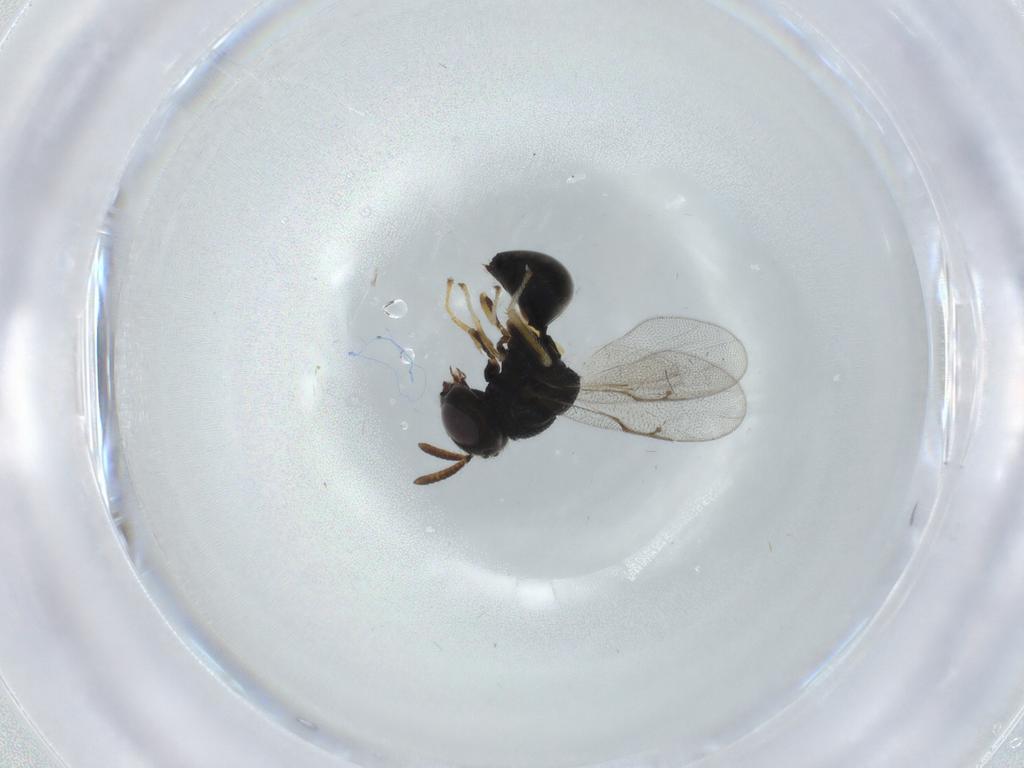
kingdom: Animalia
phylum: Arthropoda
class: Insecta
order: Hymenoptera
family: Perilampidae
